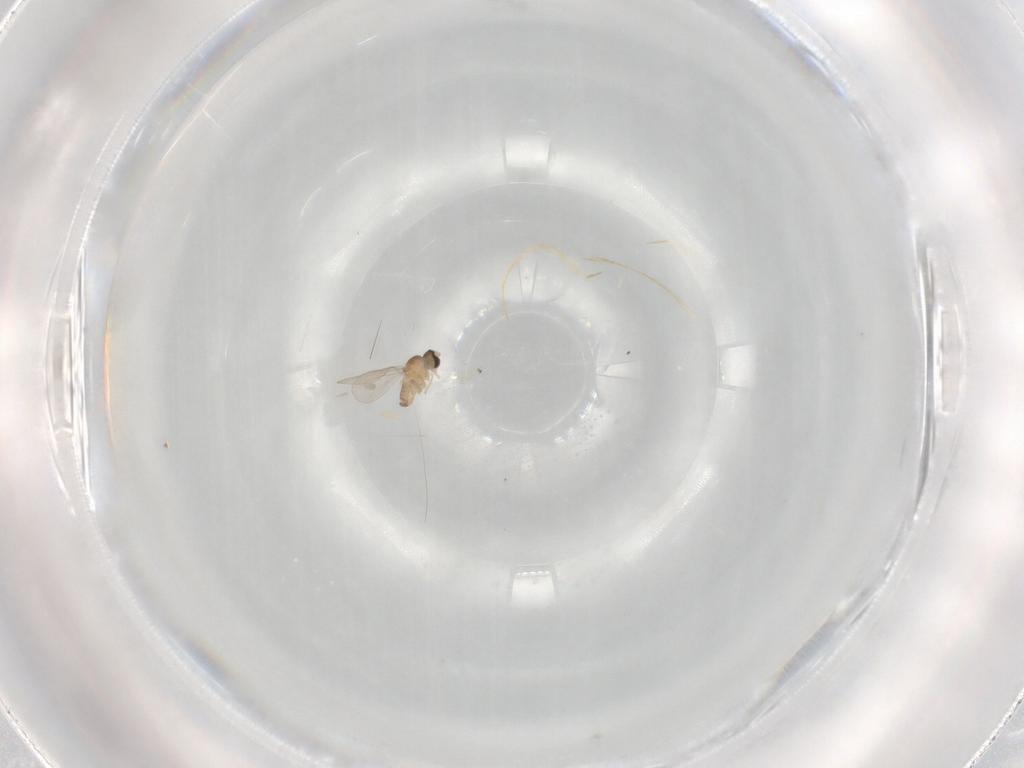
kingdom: Animalia
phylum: Arthropoda
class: Insecta
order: Diptera
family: Cecidomyiidae
